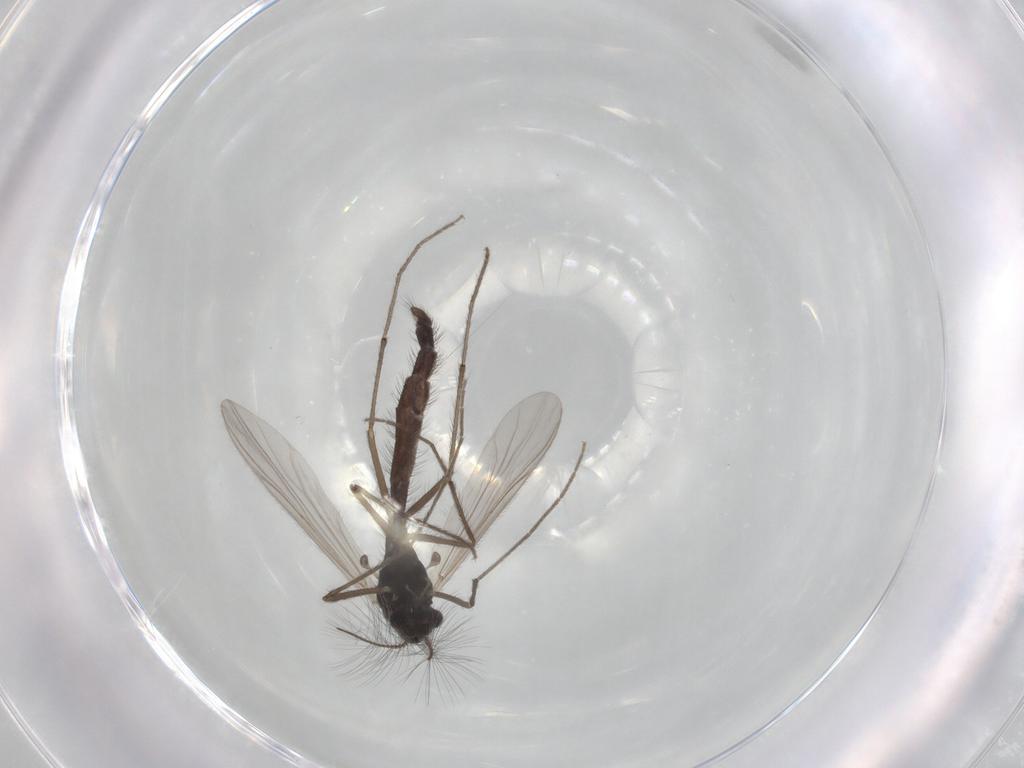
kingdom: Animalia
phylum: Arthropoda
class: Insecta
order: Diptera
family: Chironomidae
